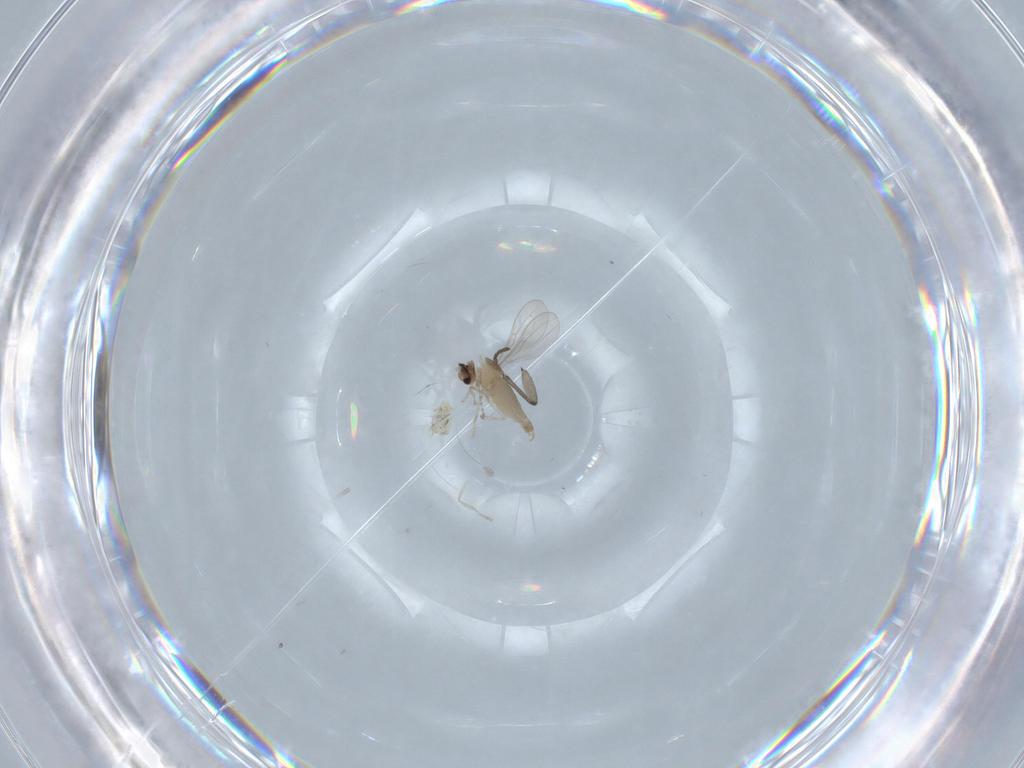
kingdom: Animalia
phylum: Arthropoda
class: Insecta
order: Diptera
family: Cecidomyiidae
